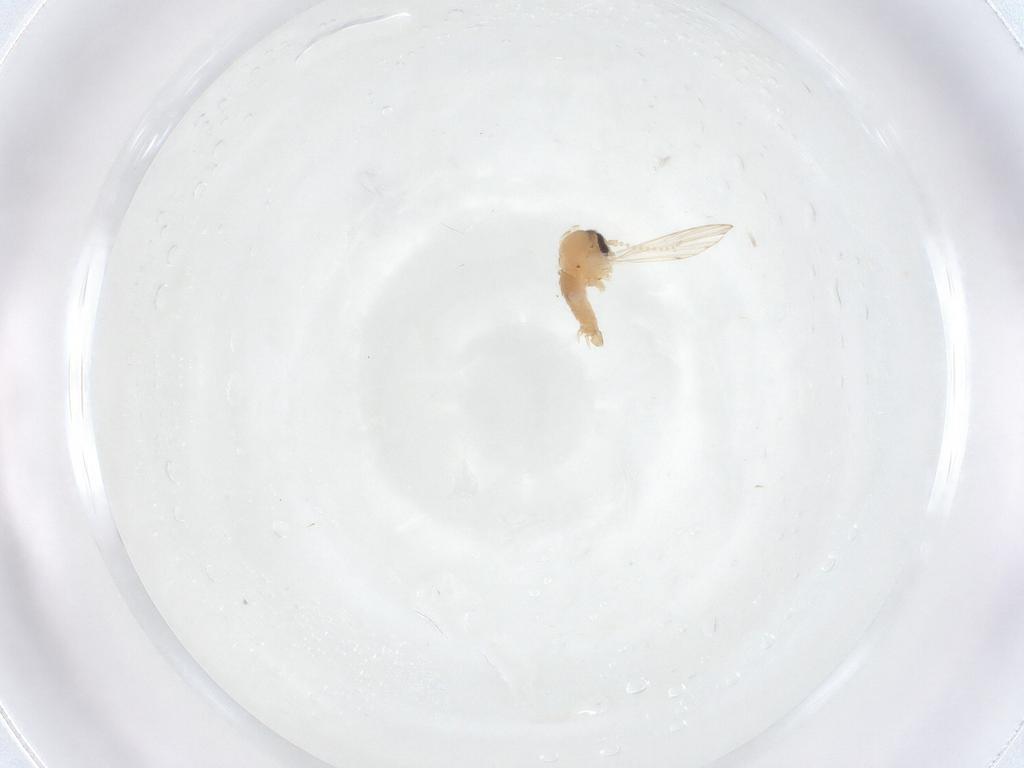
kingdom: Animalia
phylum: Arthropoda
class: Insecta
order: Diptera
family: Psychodidae
